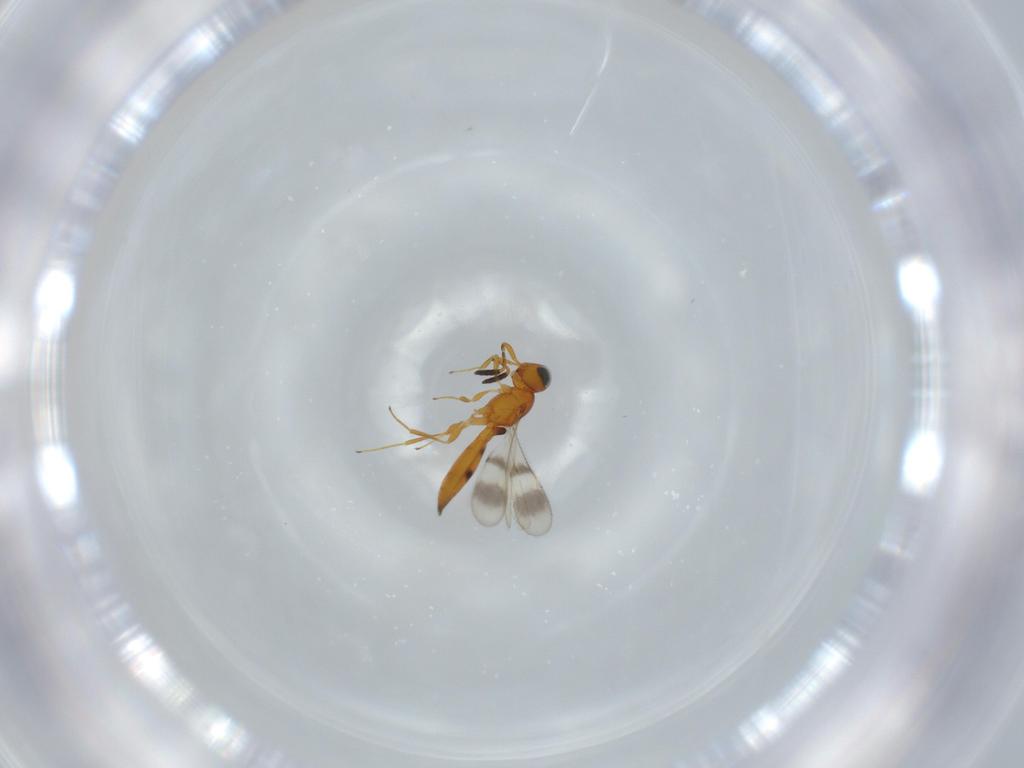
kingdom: Animalia
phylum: Arthropoda
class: Insecta
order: Hymenoptera
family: Scelionidae
